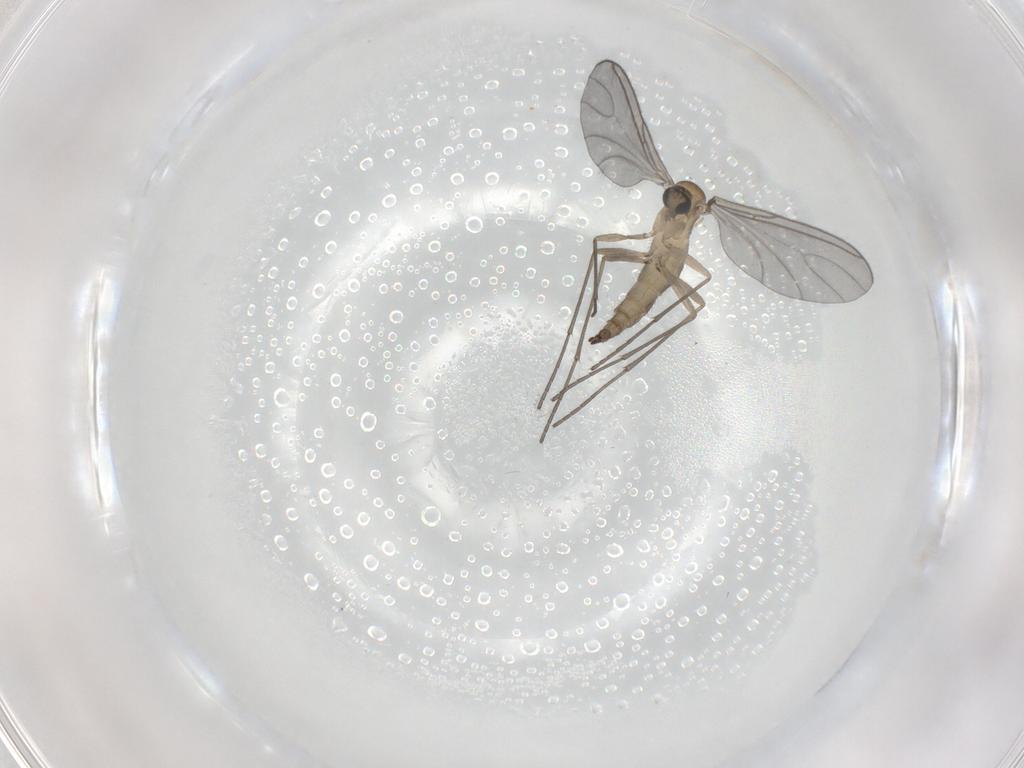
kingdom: Animalia
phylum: Arthropoda
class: Insecta
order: Diptera
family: Sciaridae
